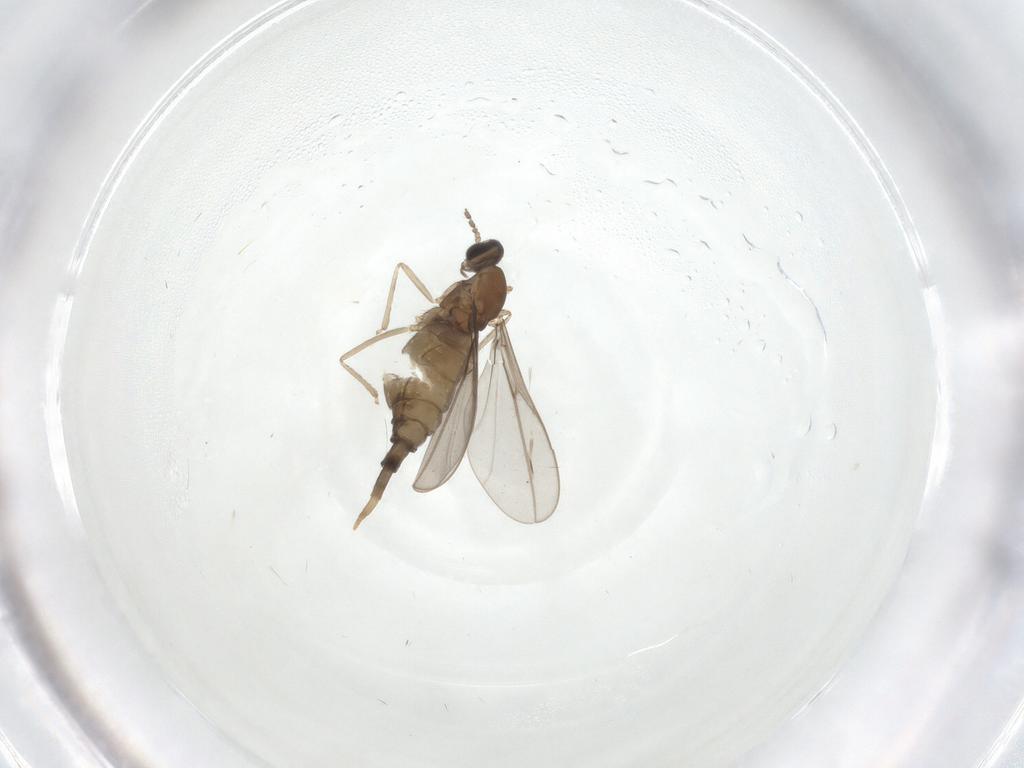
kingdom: Animalia
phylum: Arthropoda
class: Insecta
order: Diptera
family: Cecidomyiidae
